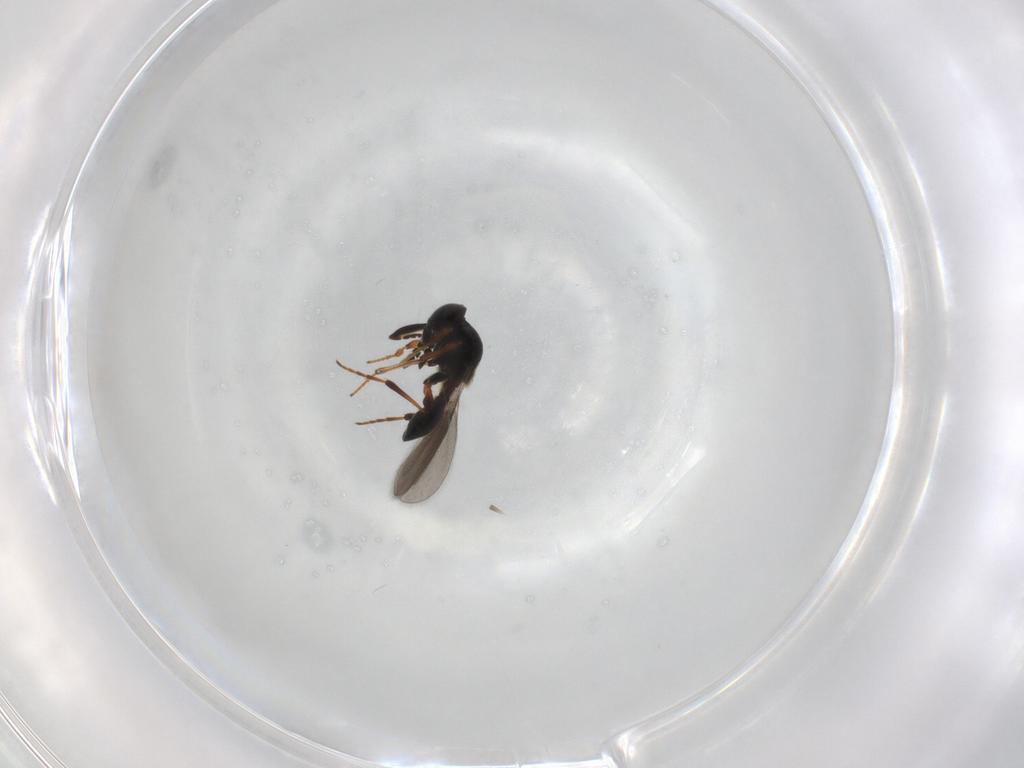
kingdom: Animalia
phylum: Arthropoda
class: Insecta
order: Hymenoptera
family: Platygastridae
